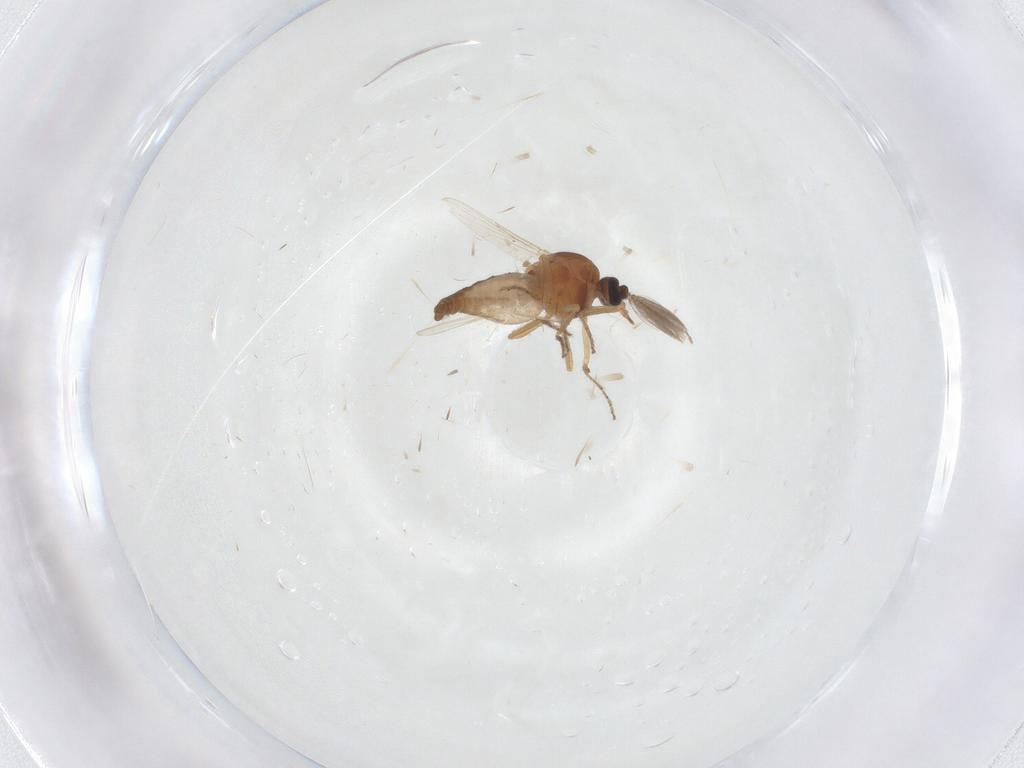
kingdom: Animalia
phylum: Arthropoda
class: Insecta
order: Diptera
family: Ceratopogonidae
